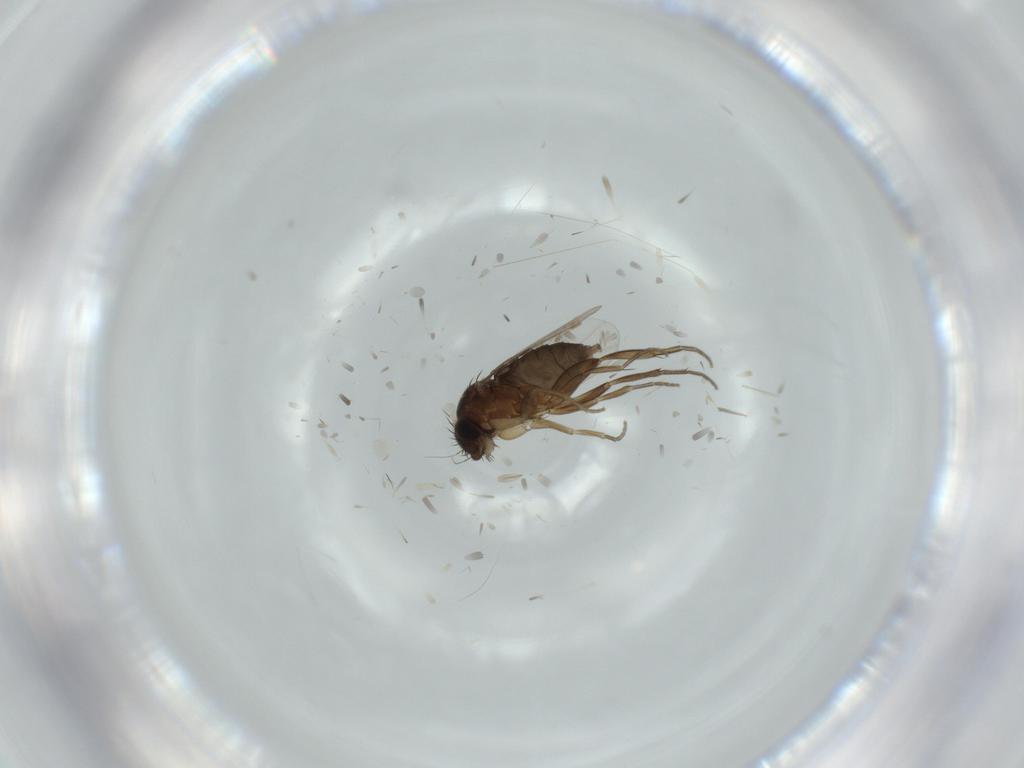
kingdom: Animalia
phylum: Arthropoda
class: Insecta
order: Diptera
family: Phoridae
